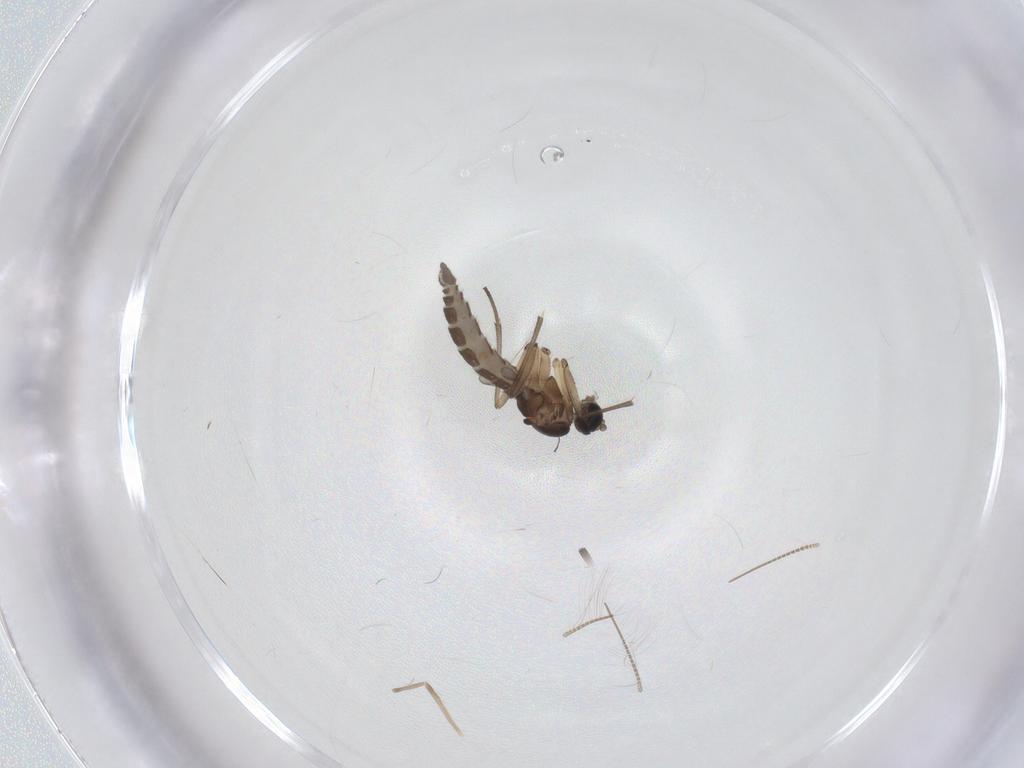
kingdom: Animalia
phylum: Arthropoda
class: Insecta
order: Diptera
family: Sciaridae
